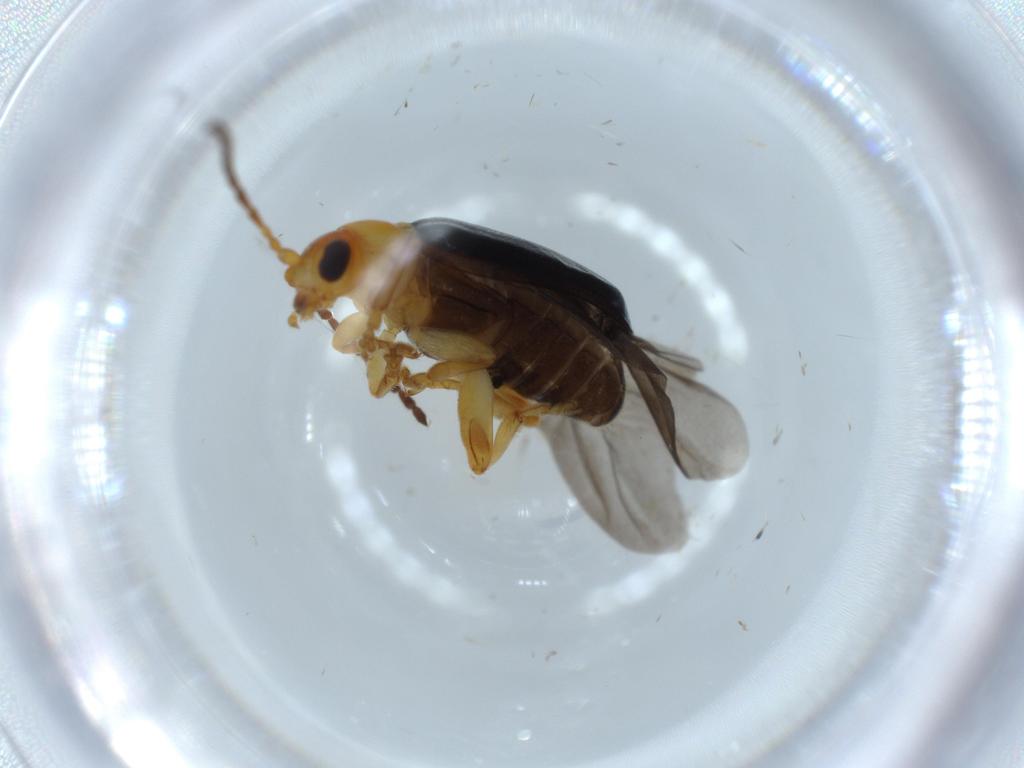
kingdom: Animalia
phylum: Arthropoda
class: Insecta
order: Coleoptera
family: Chrysomelidae
